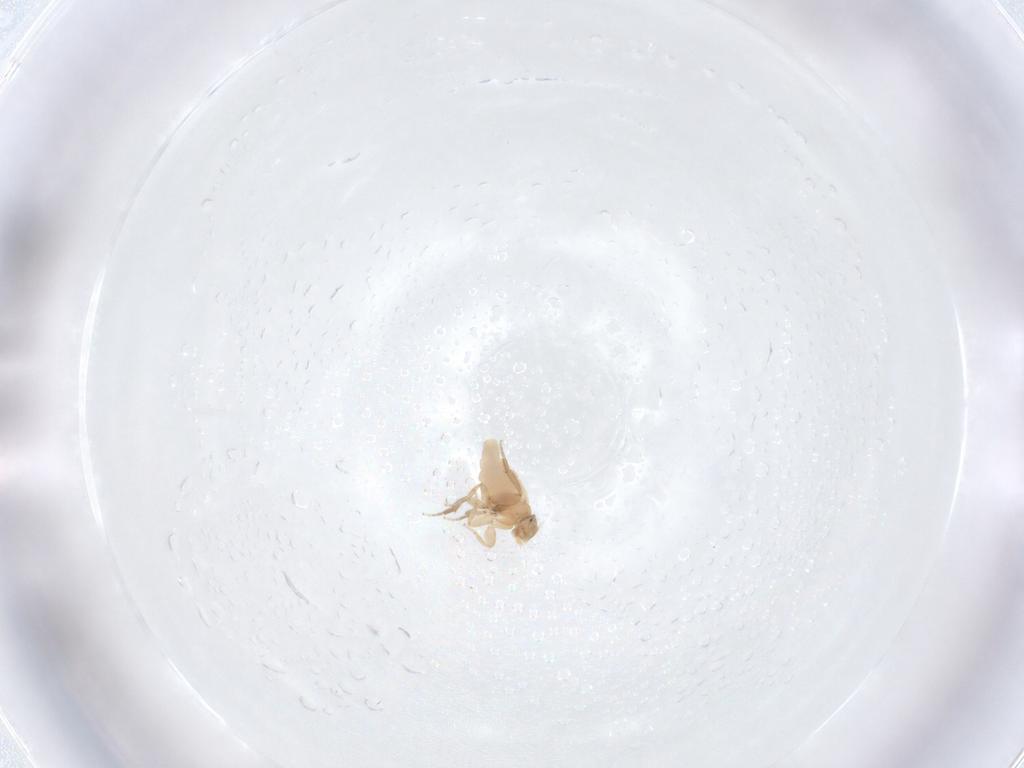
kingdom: Animalia
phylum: Arthropoda
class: Insecta
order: Diptera
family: Phoridae
